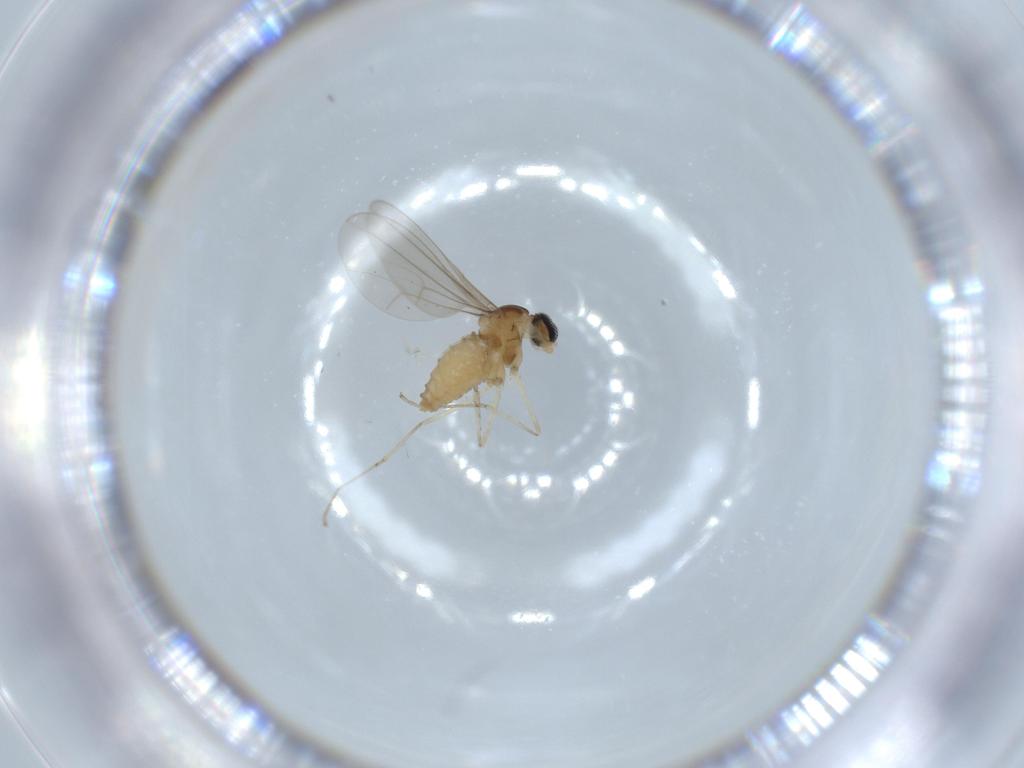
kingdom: Animalia
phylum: Arthropoda
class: Insecta
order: Diptera
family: Cecidomyiidae
